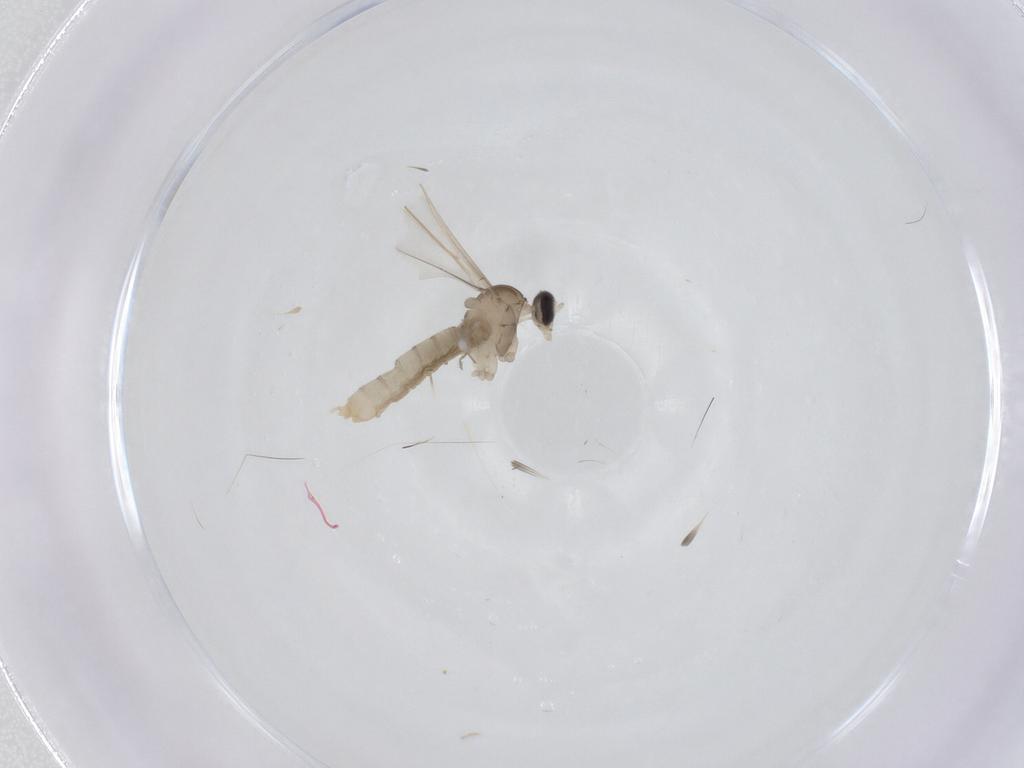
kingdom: Animalia
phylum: Arthropoda
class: Insecta
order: Diptera
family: Cecidomyiidae
